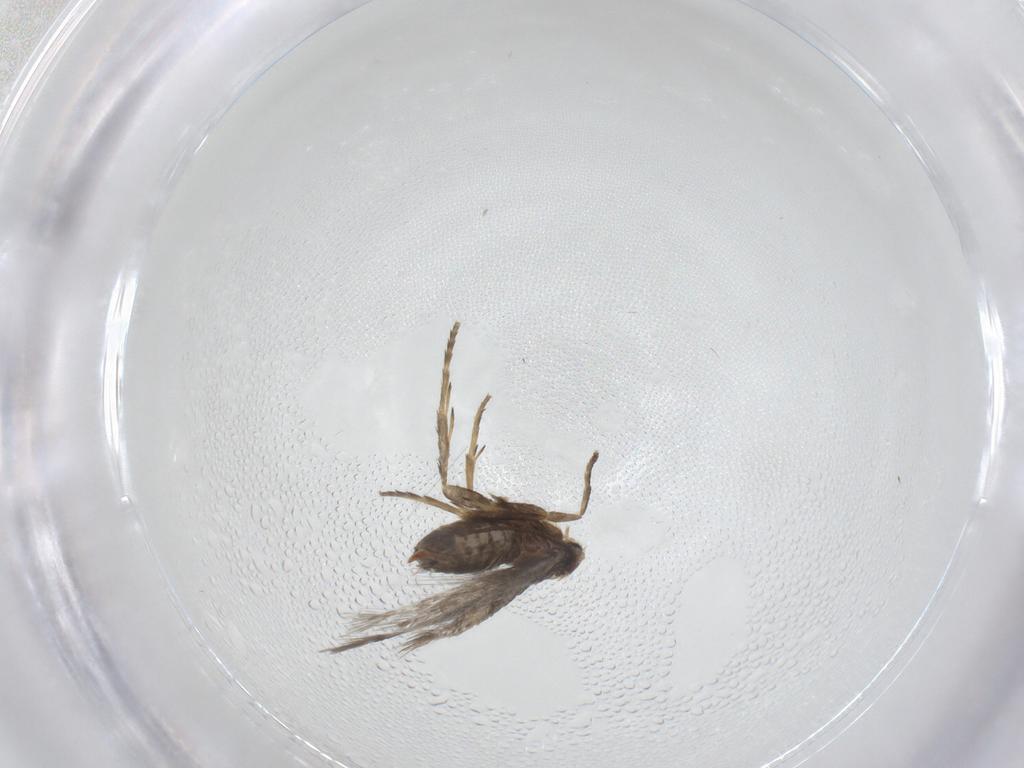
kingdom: Animalia
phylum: Arthropoda
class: Insecta
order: Lepidoptera
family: Nepticulidae
